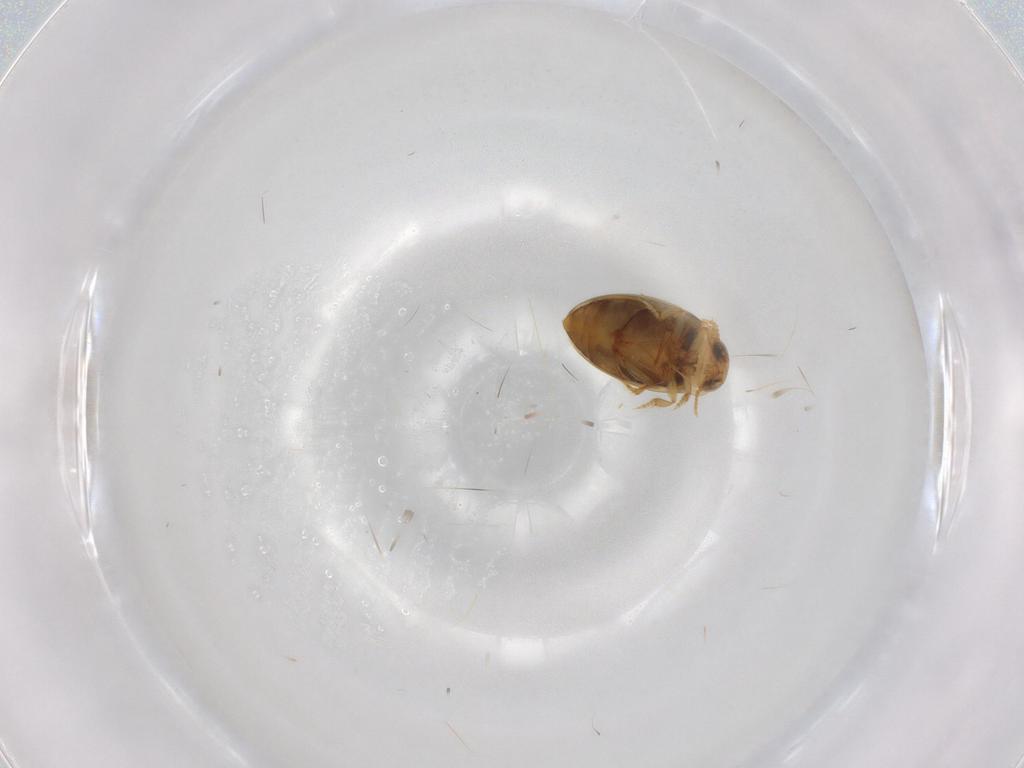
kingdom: Animalia
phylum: Arthropoda
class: Insecta
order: Coleoptera
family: Dytiscidae
